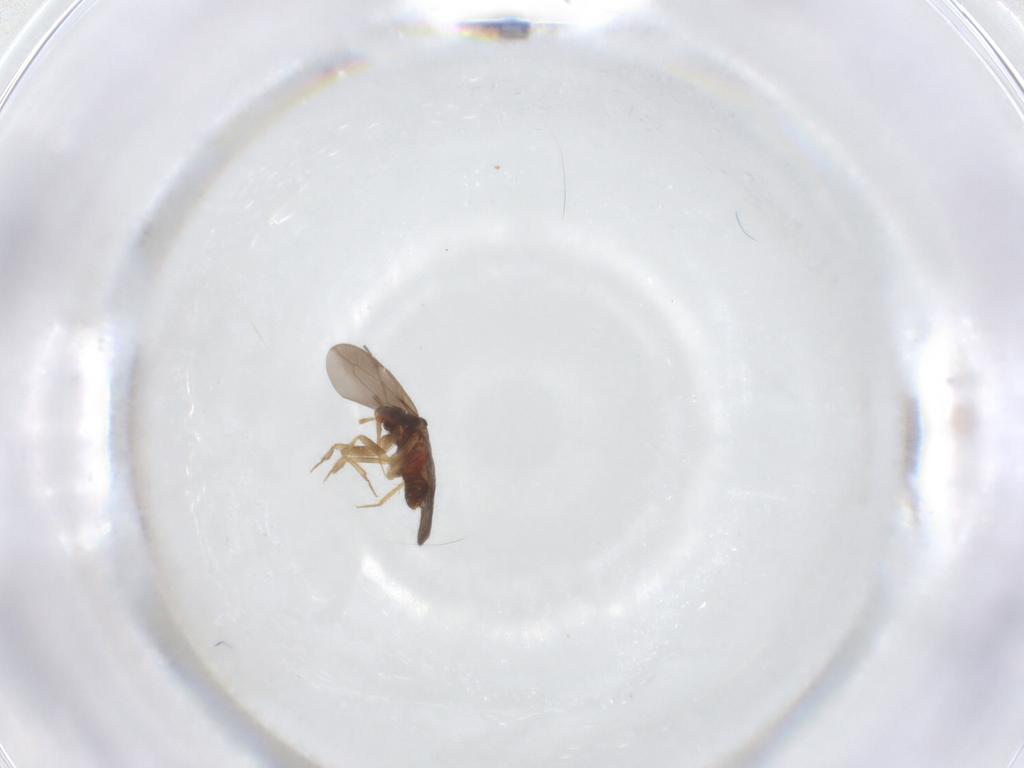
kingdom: Animalia
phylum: Arthropoda
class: Insecta
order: Hemiptera
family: Ceratocombidae
